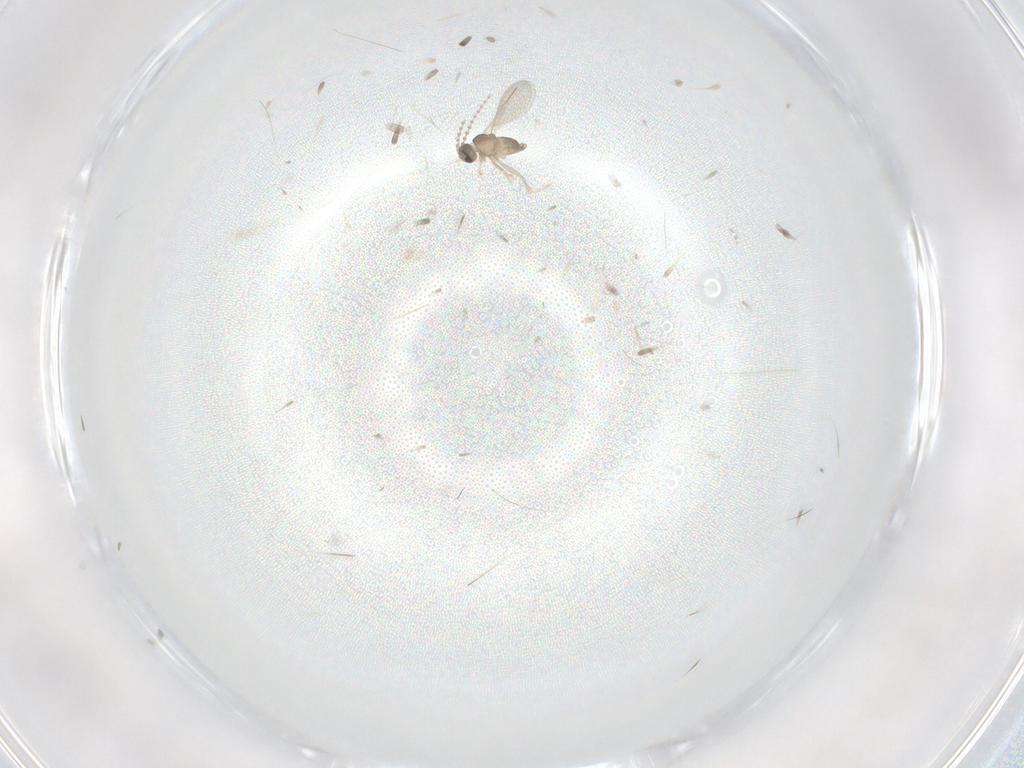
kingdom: Animalia
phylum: Arthropoda
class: Insecta
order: Diptera
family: Cecidomyiidae
